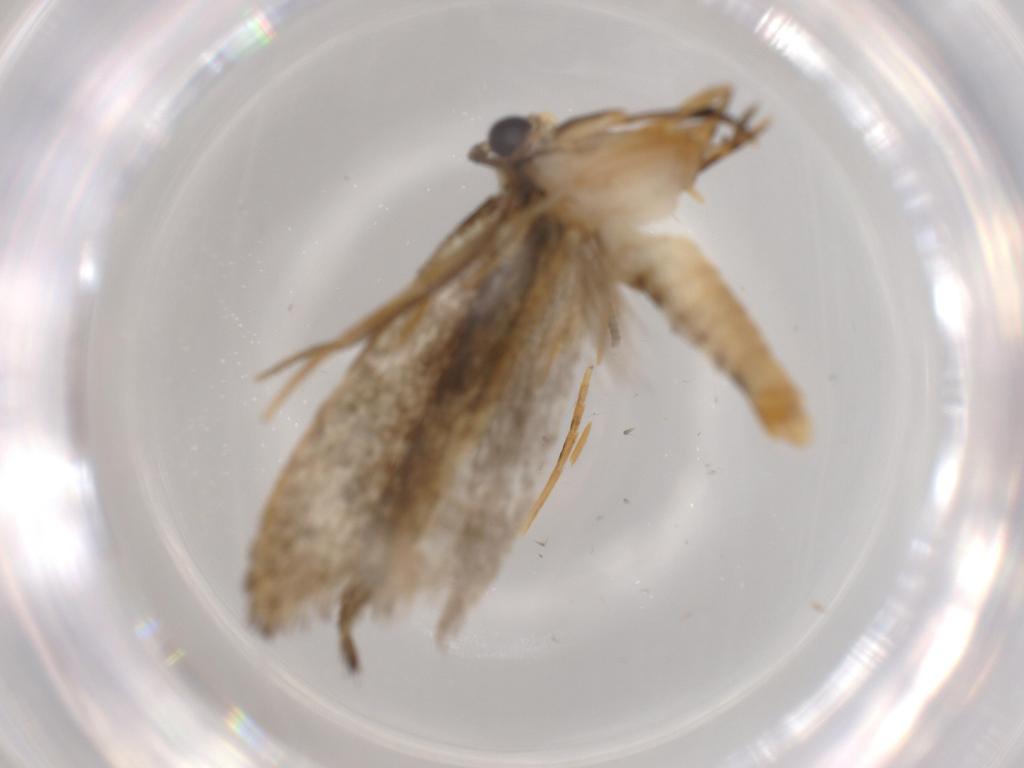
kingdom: Animalia
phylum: Arthropoda
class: Insecta
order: Lepidoptera
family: Tineidae
